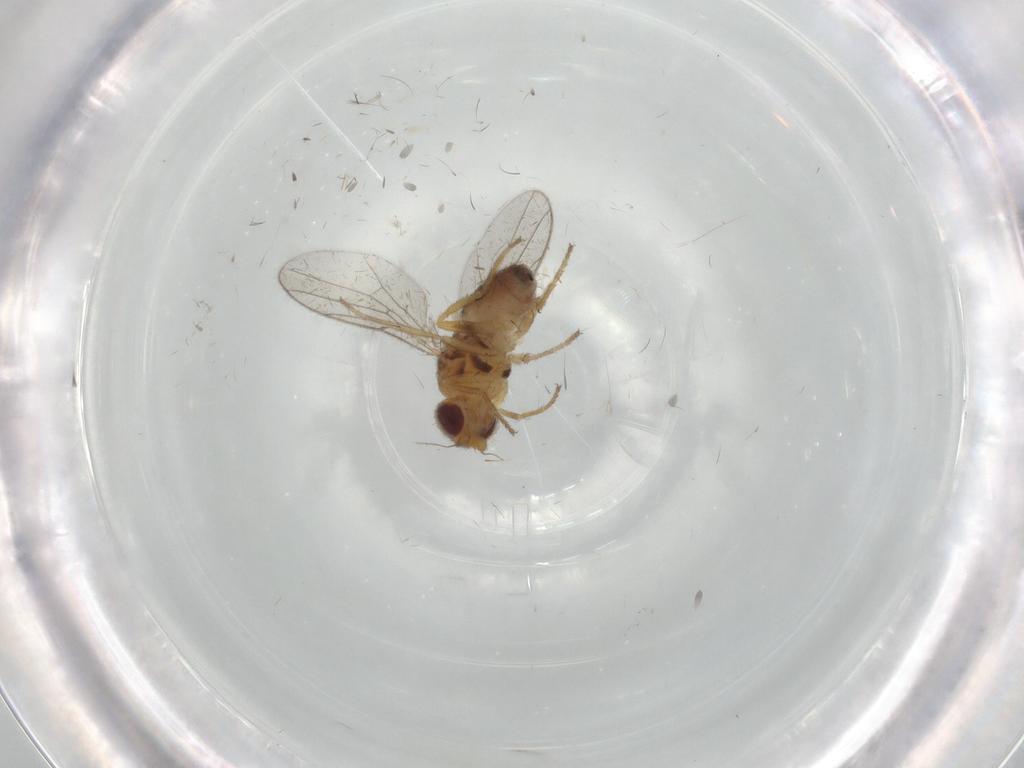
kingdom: Animalia
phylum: Arthropoda
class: Insecta
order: Diptera
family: Chloropidae
